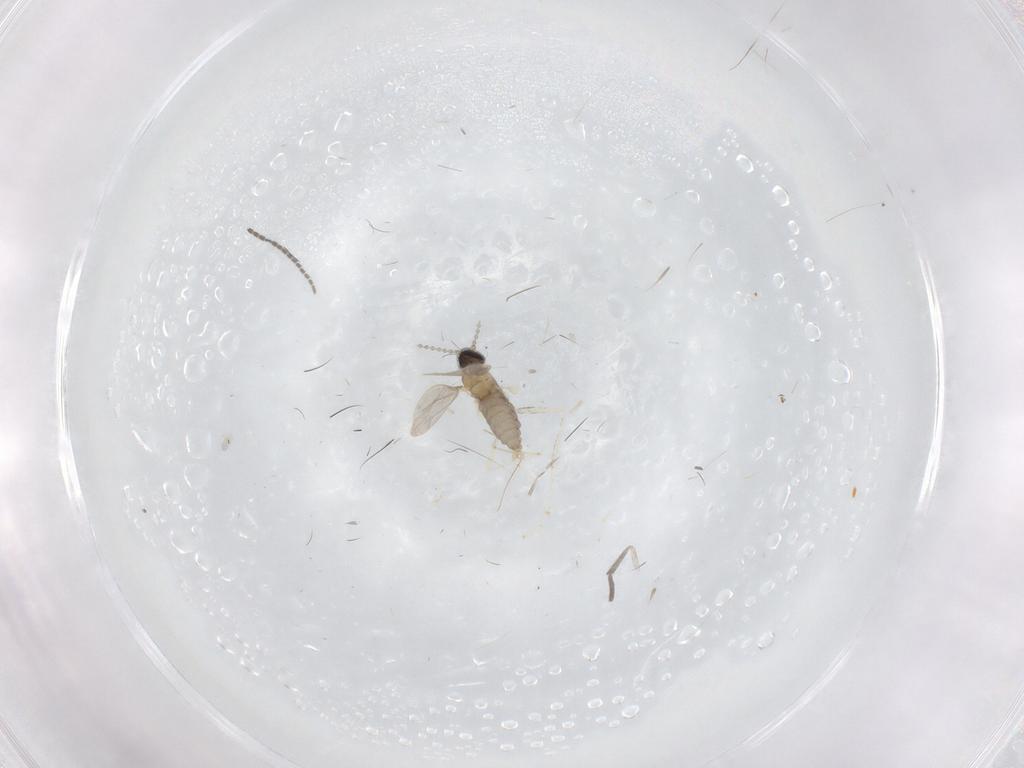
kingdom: Animalia
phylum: Arthropoda
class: Insecta
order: Diptera
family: Cecidomyiidae
